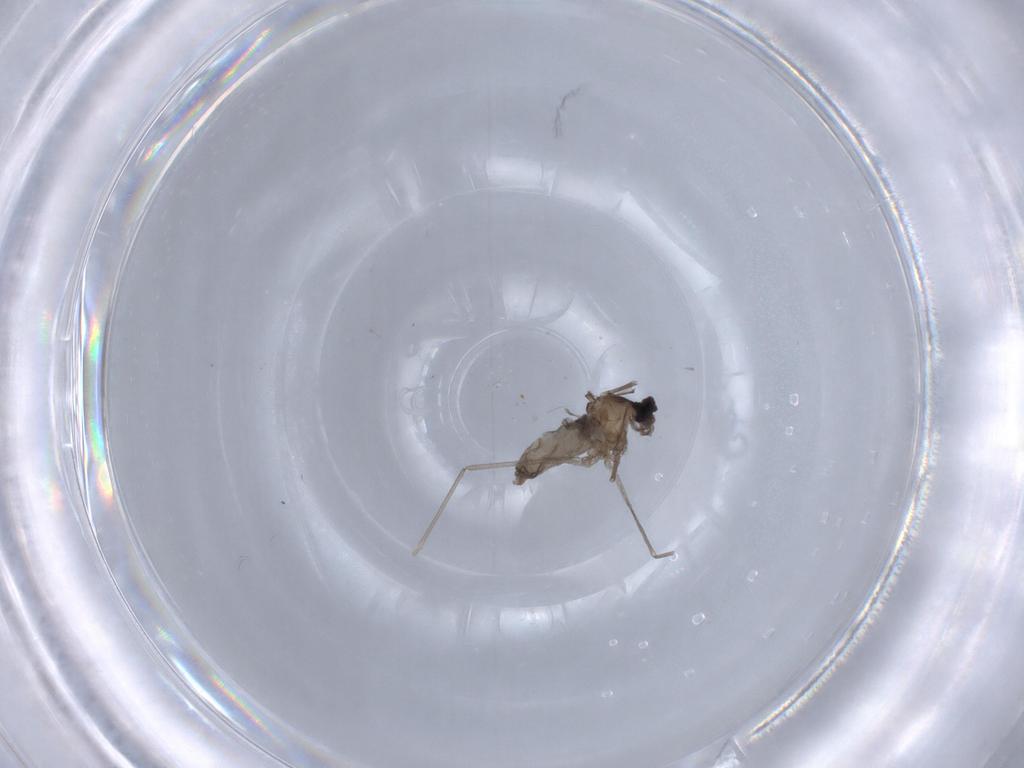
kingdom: Animalia
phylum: Arthropoda
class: Insecta
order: Diptera
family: Cecidomyiidae
